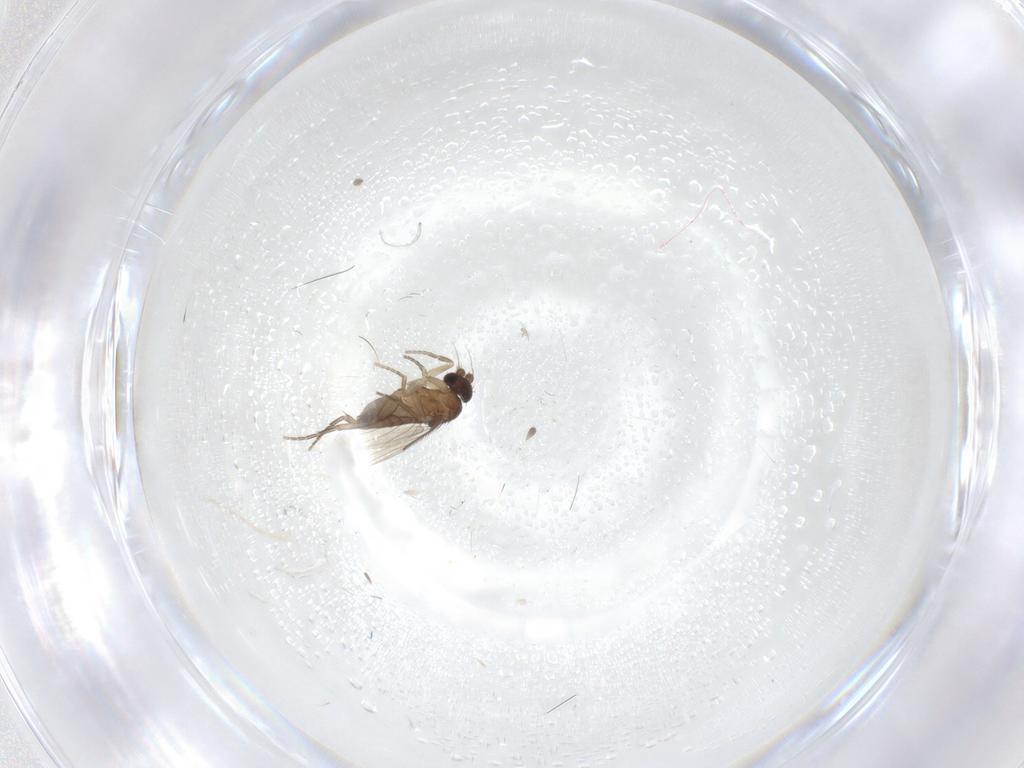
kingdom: Animalia
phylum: Arthropoda
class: Insecta
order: Diptera
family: Phoridae
